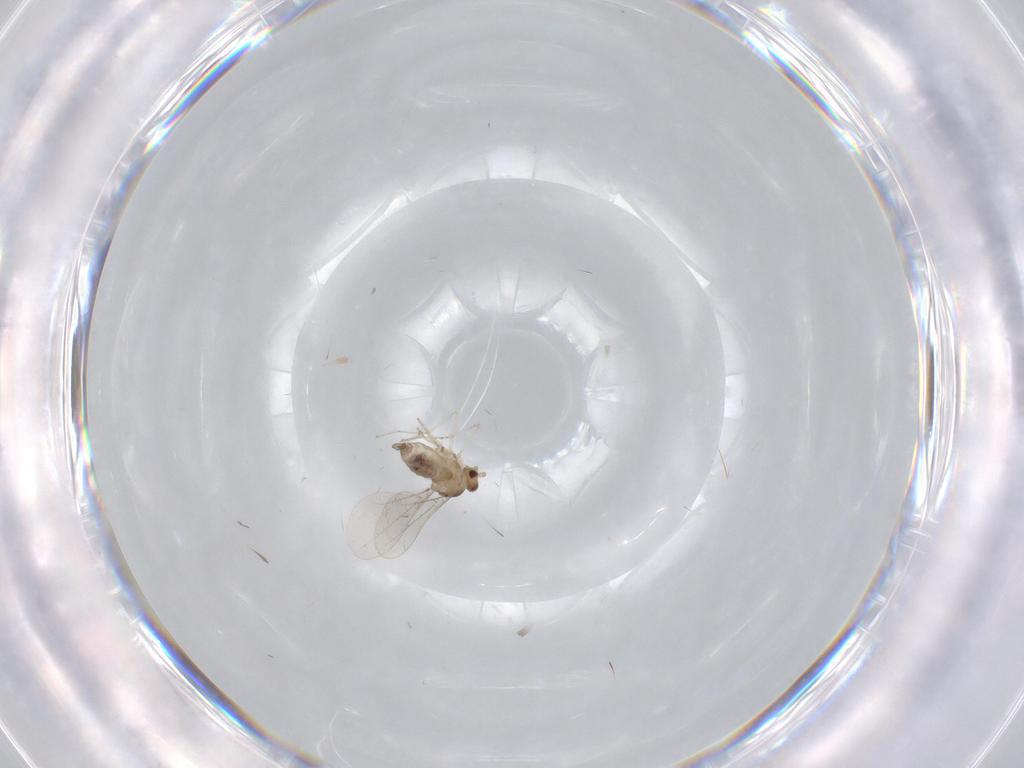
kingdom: Animalia
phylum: Arthropoda
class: Insecta
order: Diptera
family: Cecidomyiidae
